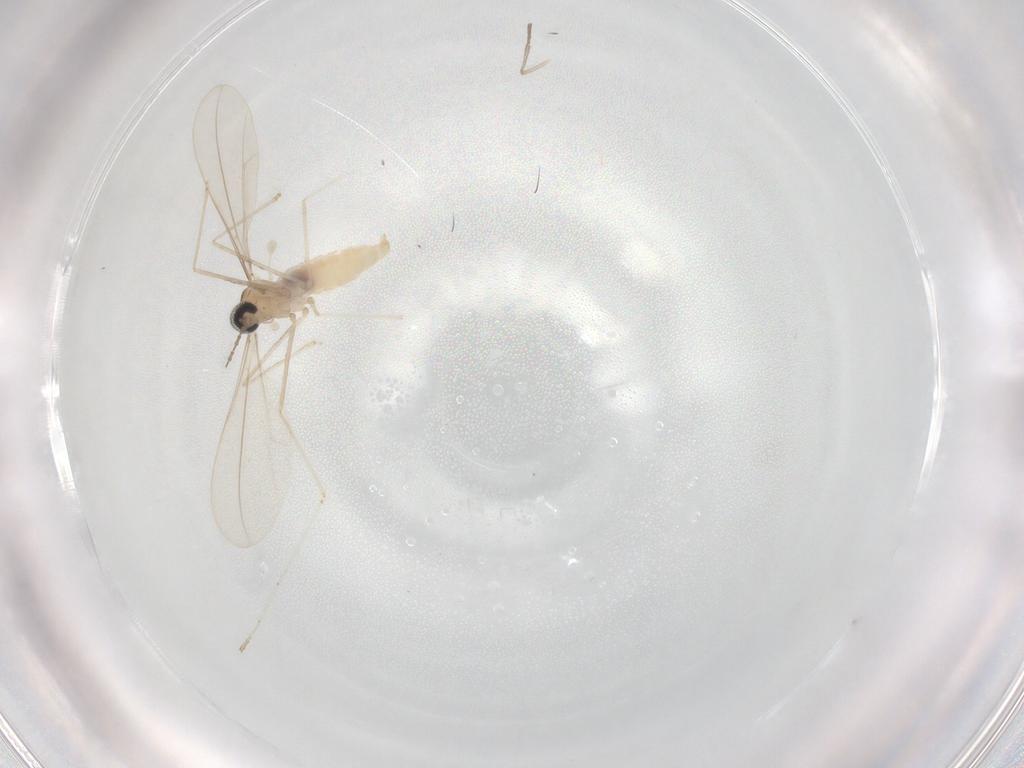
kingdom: Animalia
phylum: Arthropoda
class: Insecta
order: Diptera
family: Cecidomyiidae
